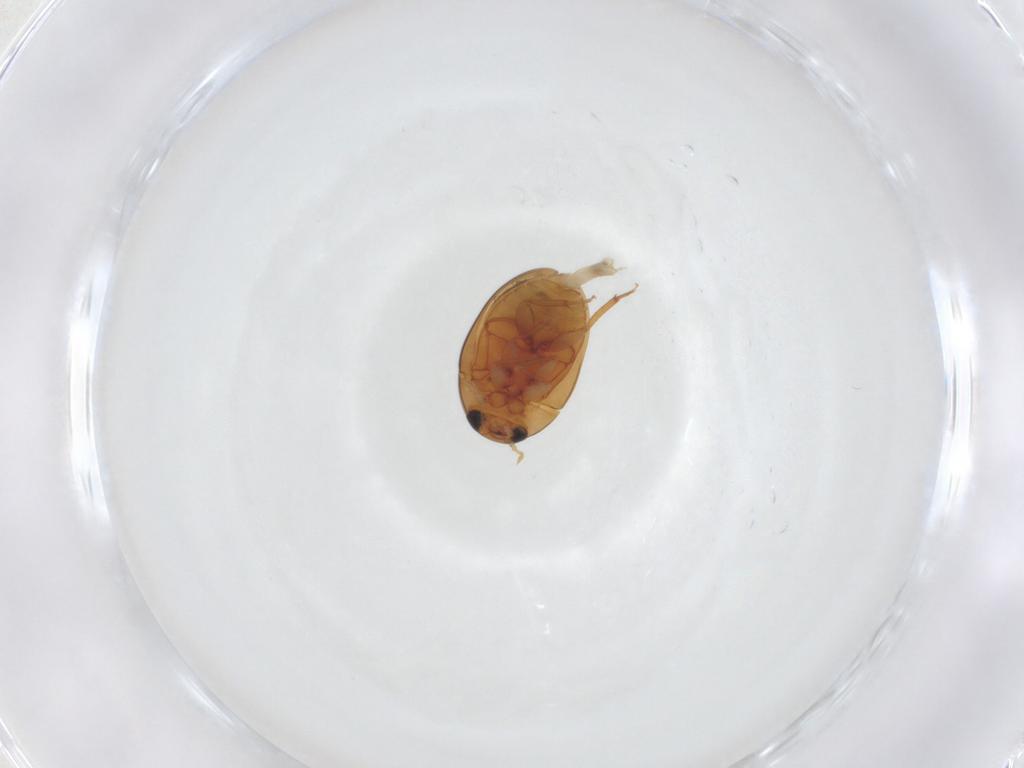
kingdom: Animalia
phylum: Arthropoda
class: Insecta
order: Coleoptera
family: Phalacridae
